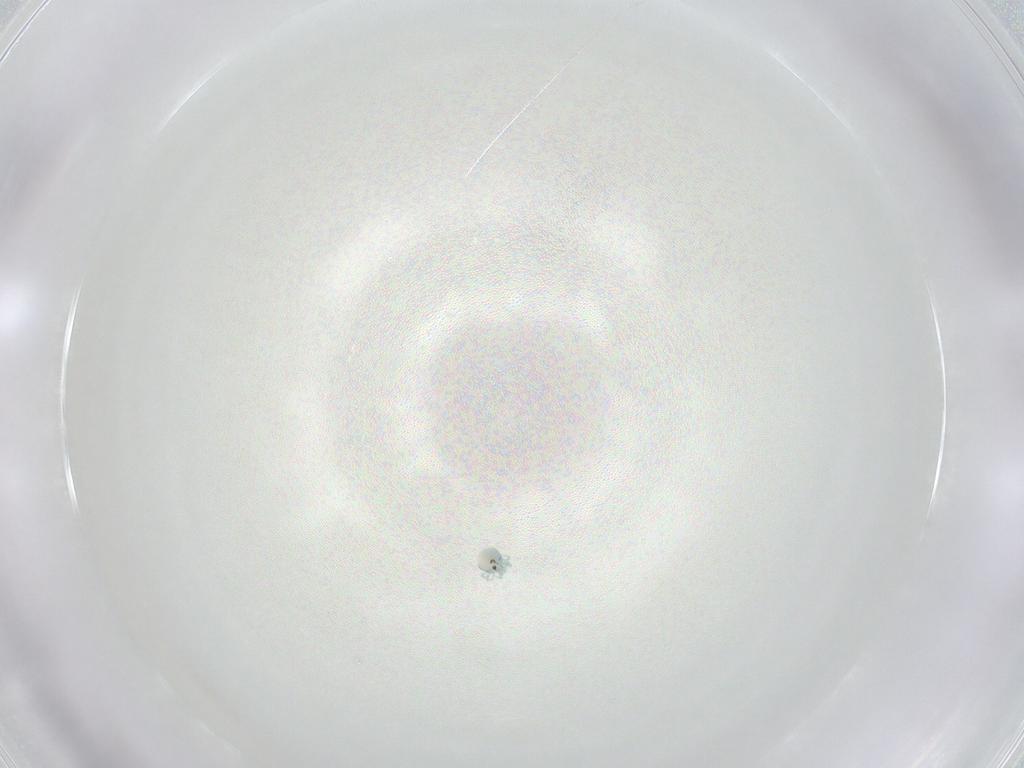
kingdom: Animalia
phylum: Arthropoda
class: Arachnida
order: Trombidiformes
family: Arrenuridae
